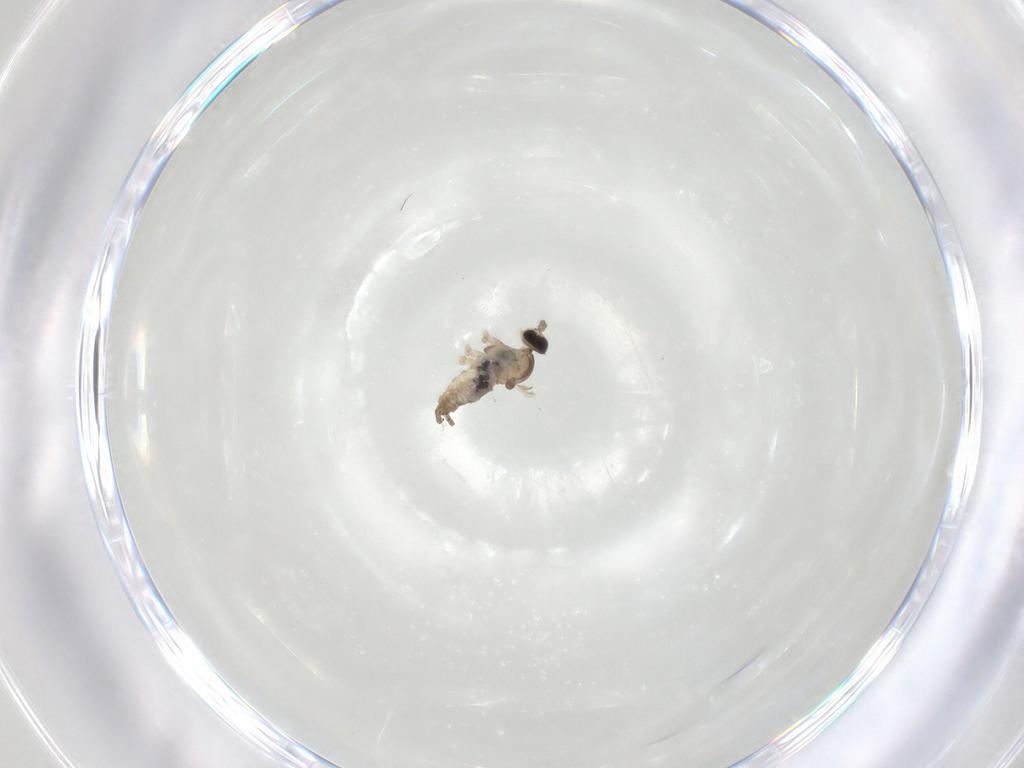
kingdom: Animalia
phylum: Arthropoda
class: Insecta
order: Diptera
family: Cecidomyiidae
